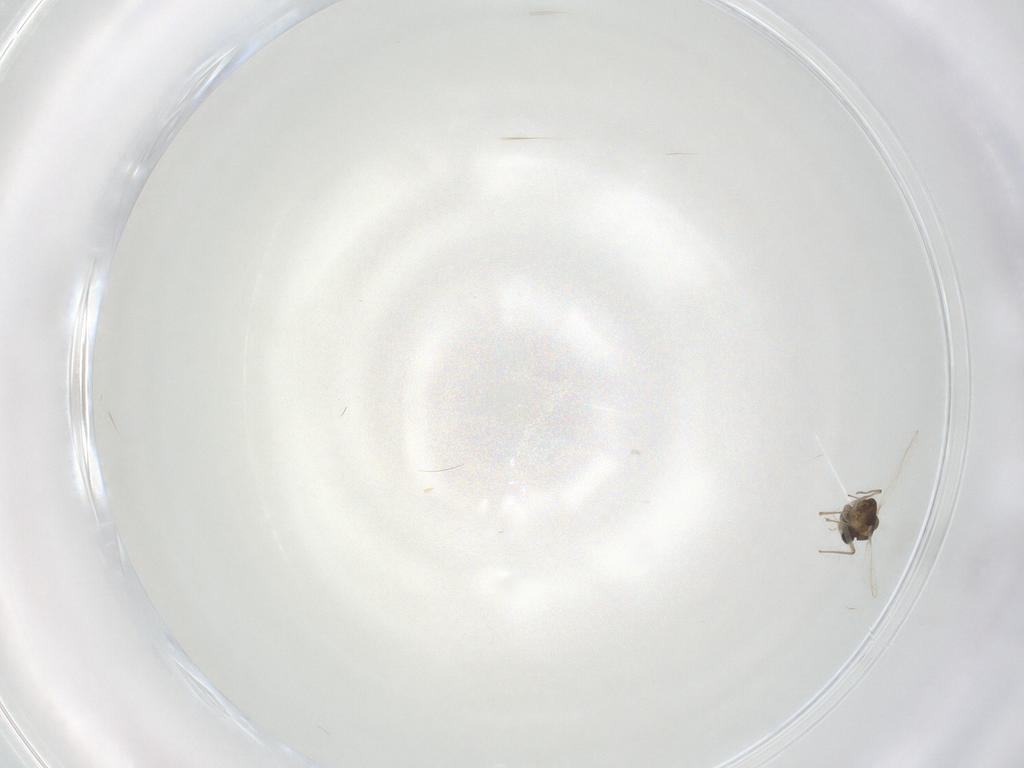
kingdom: Animalia
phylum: Arthropoda
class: Insecta
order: Diptera
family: Chironomidae
